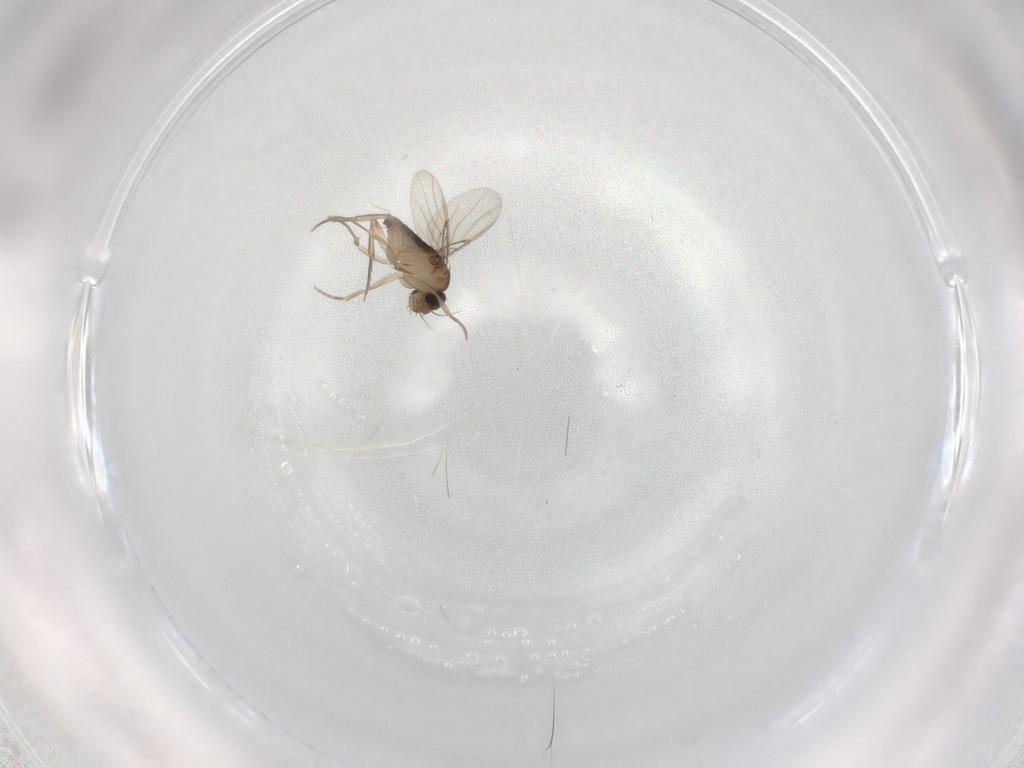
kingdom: Animalia
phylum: Arthropoda
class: Insecta
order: Diptera
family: Phoridae
